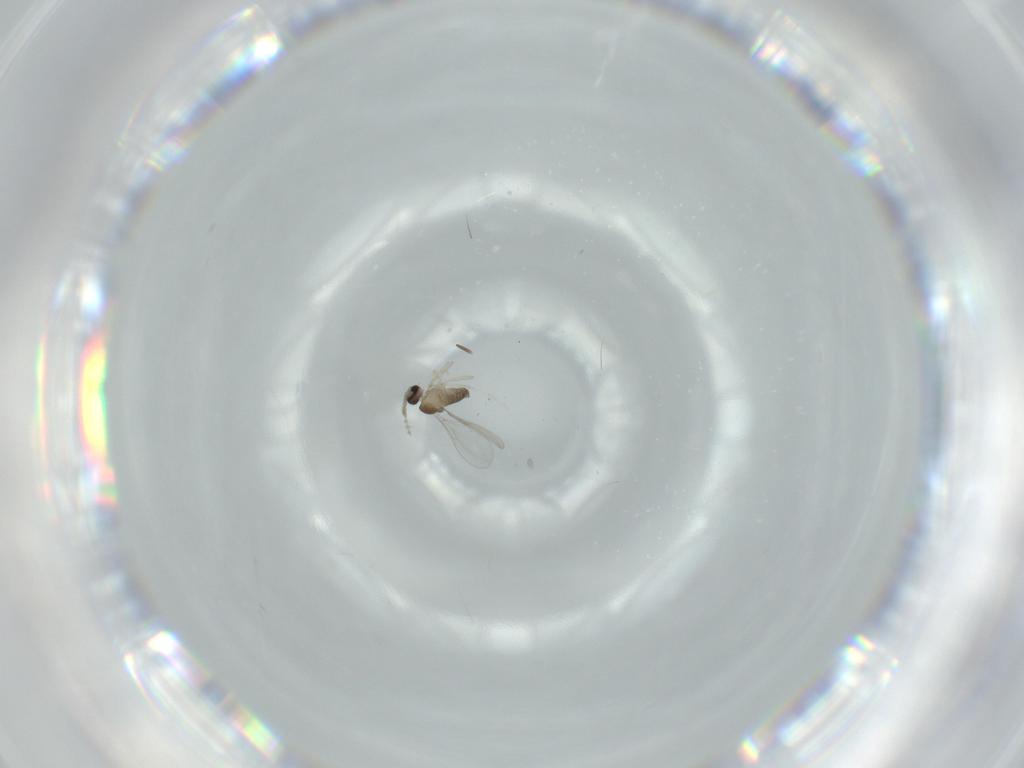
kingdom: Animalia
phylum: Arthropoda
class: Insecta
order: Diptera
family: Cecidomyiidae
